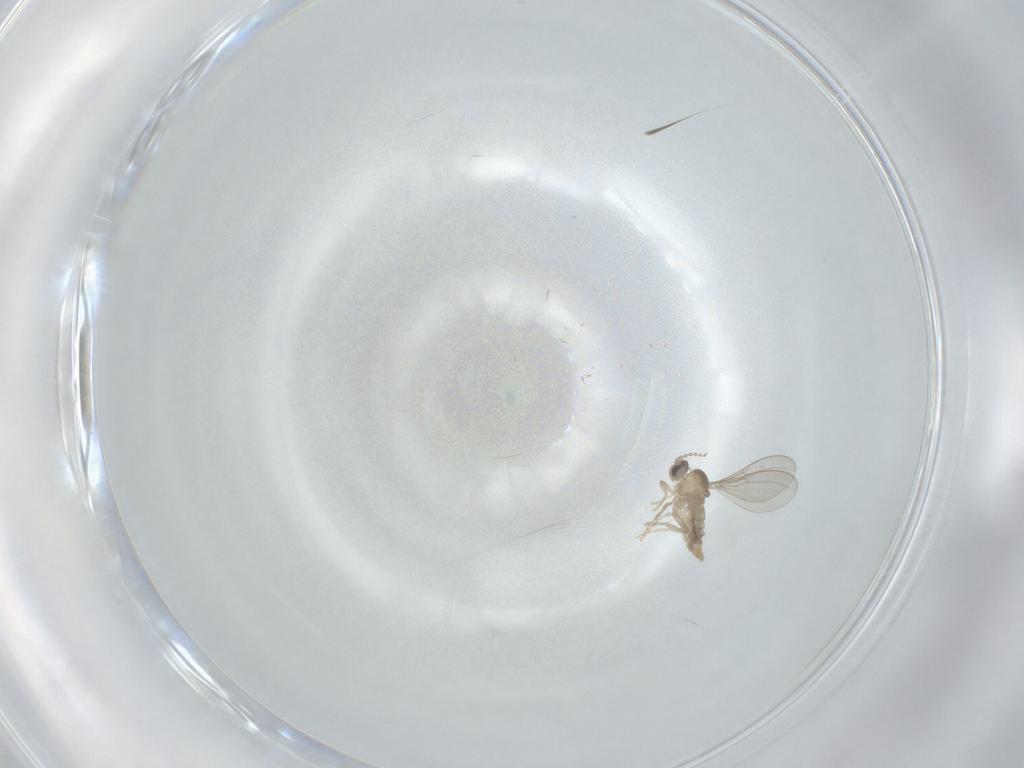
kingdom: Animalia
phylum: Arthropoda
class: Insecta
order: Diptera
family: Cecidomyiidae
